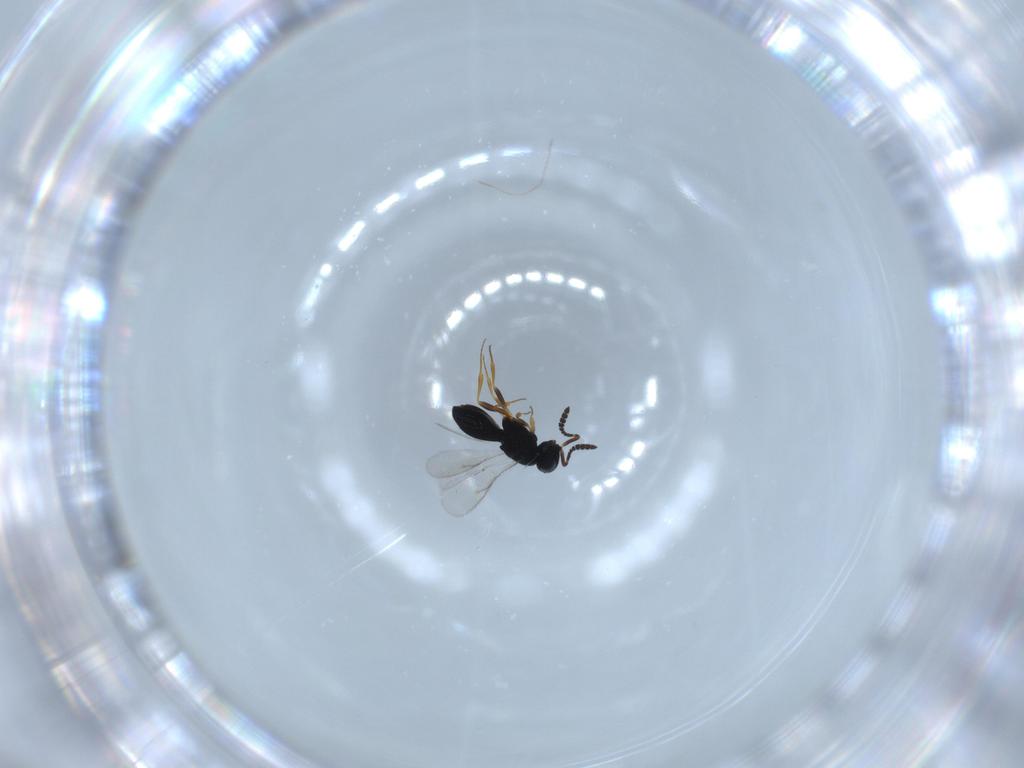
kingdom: Animalia
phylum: Arthropoda
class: Insecta
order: Hymenoptera
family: Scelionidae
